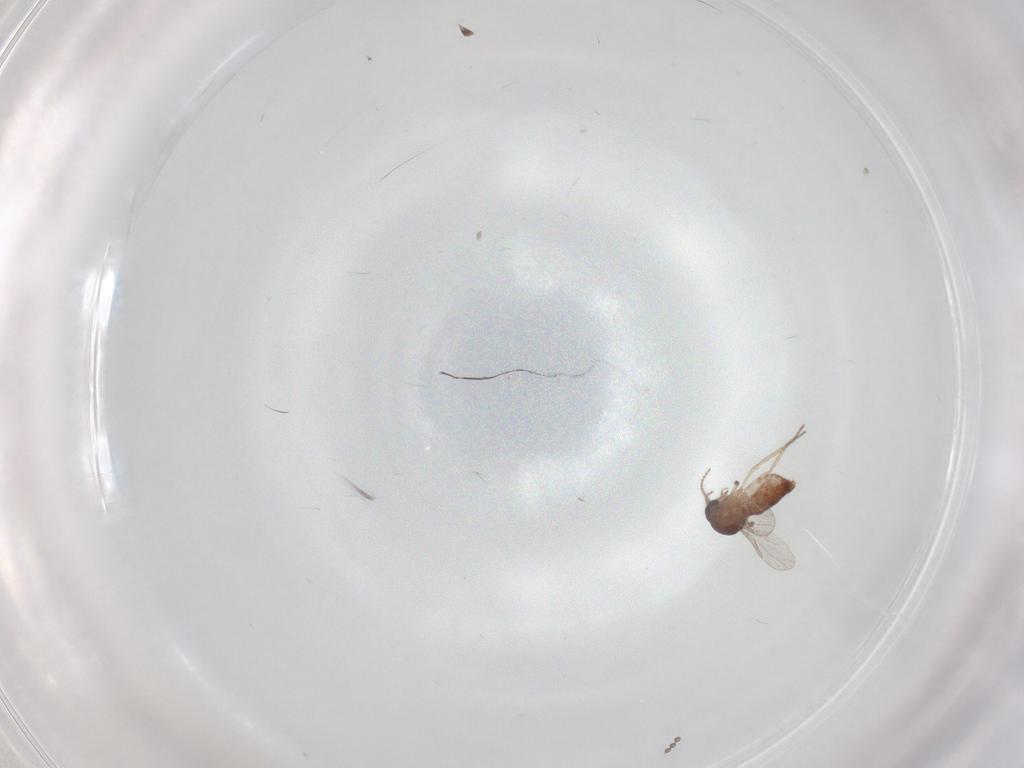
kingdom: Animalia
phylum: Arthropoda
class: Insecta
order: Diptera
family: Ceratopogonidae
